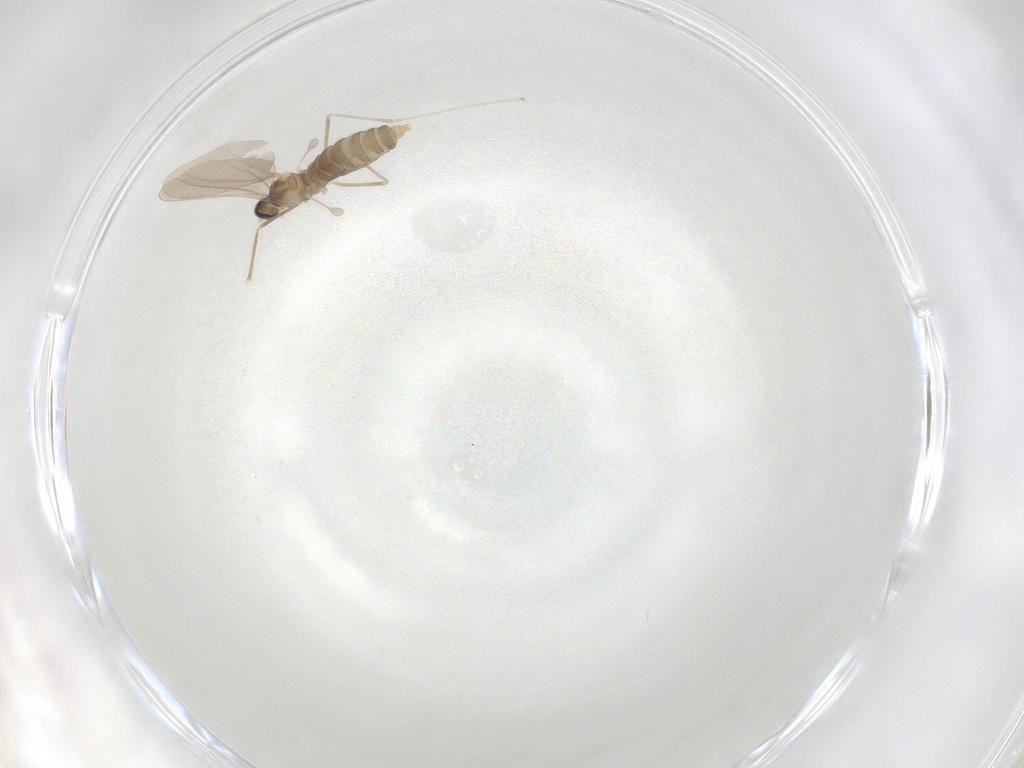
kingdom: Animalia
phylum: Arthropoda
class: Insecta
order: Diptera
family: Cecidomyiidae
